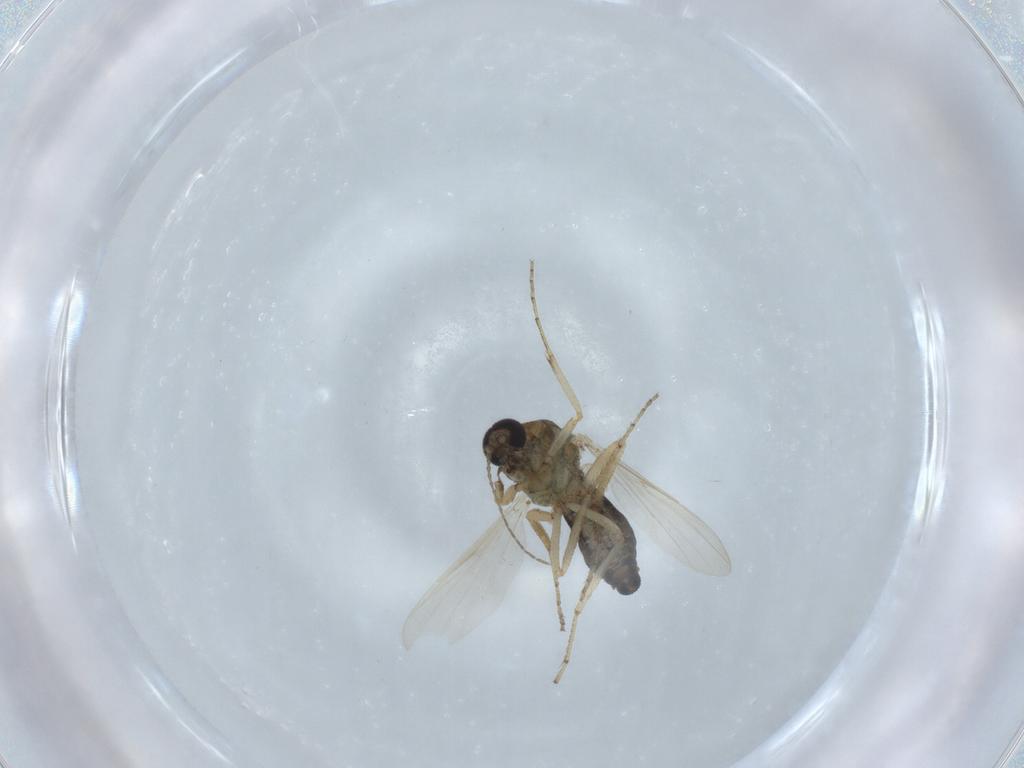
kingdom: Animalia
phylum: Arthropoda
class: Insecta
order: Diptera
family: Ceratopogonidae
